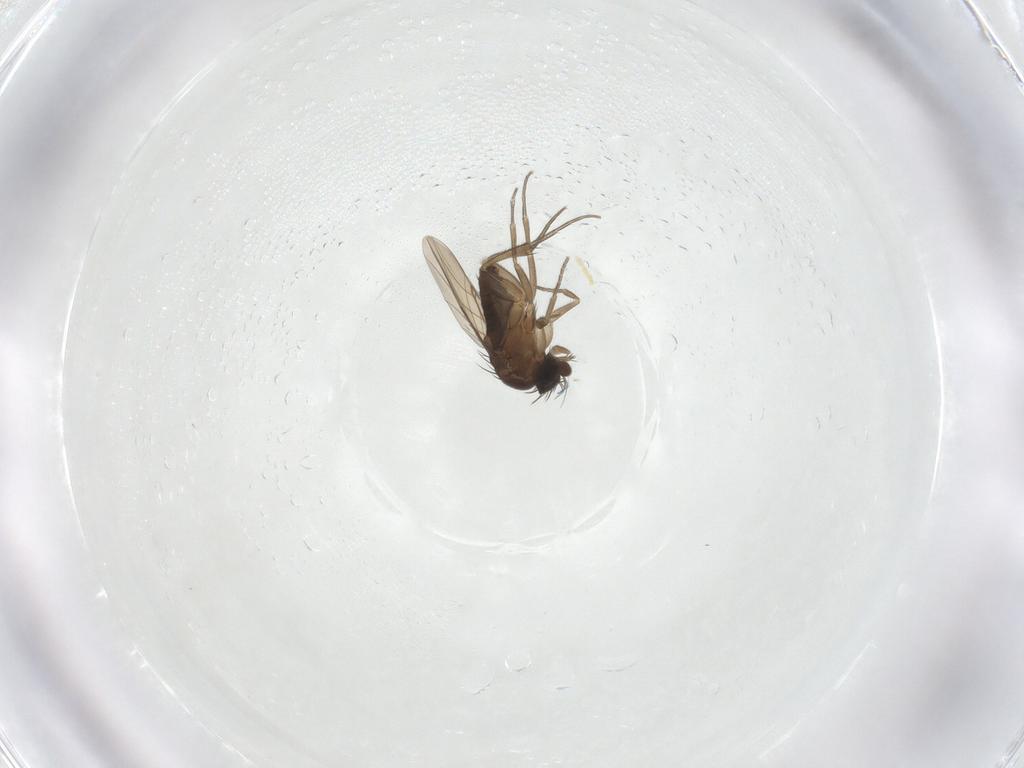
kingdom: Animalia
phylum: Arthropoda
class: Insecta
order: Diptera
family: Phoridae
